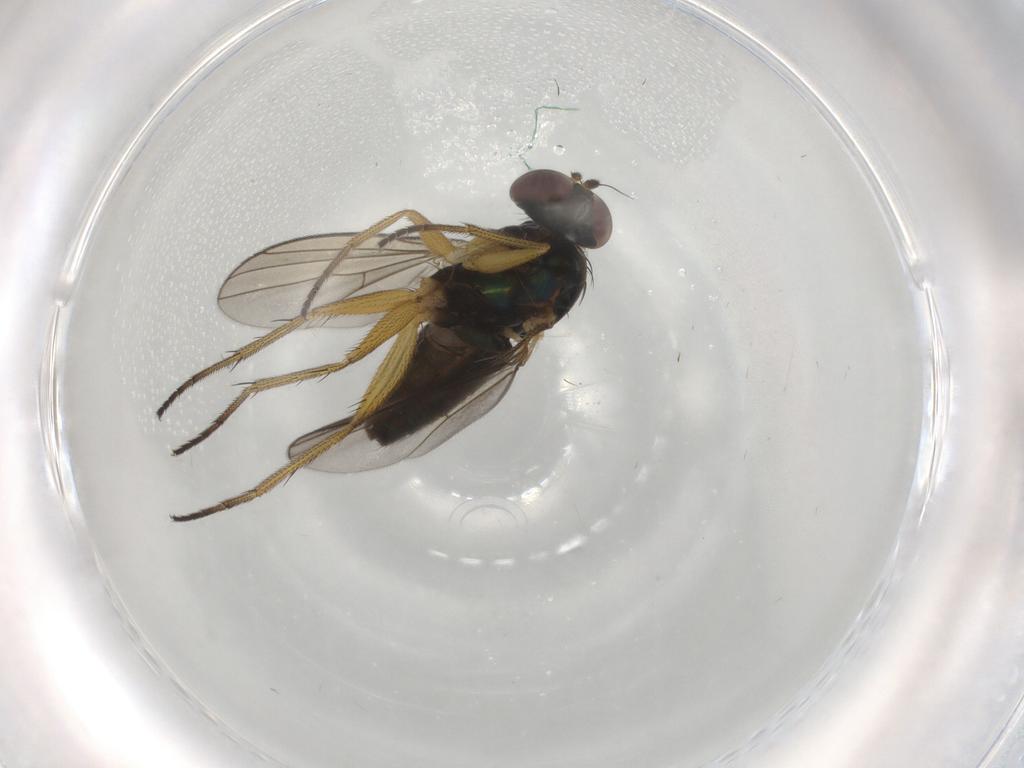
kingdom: Animalia
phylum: Arthropoda
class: Insecta
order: Diptera
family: Dolichopodidae
